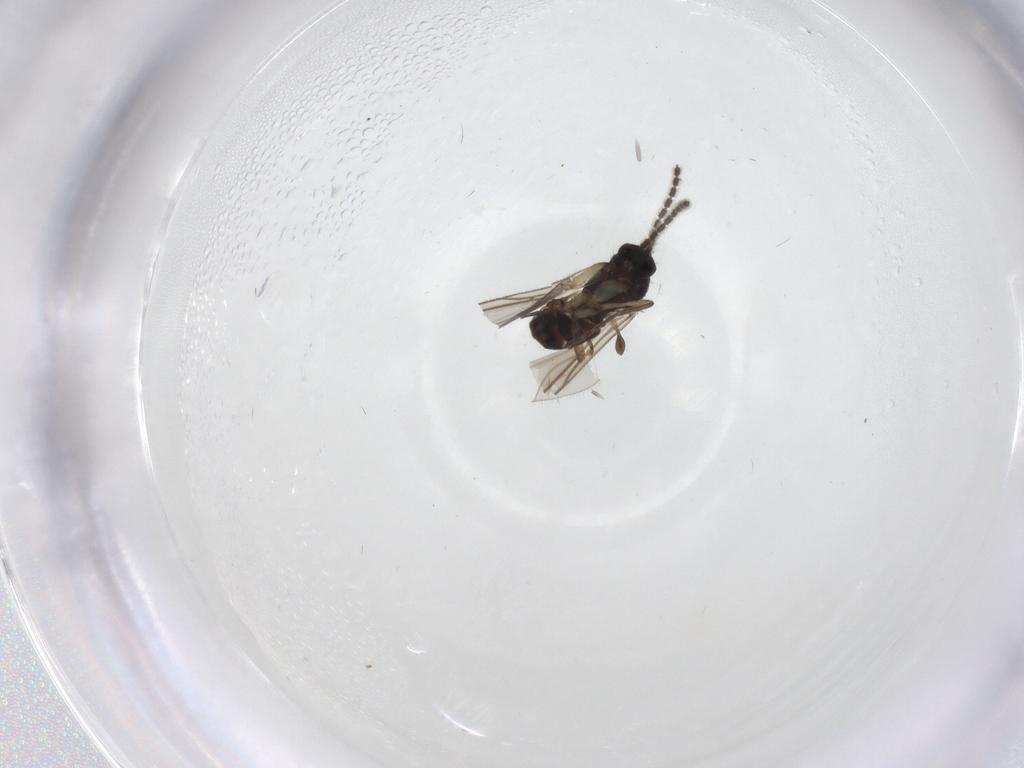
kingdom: Animalia
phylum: Arthropoda
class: Insecta
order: Diptera
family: Sciaridae
